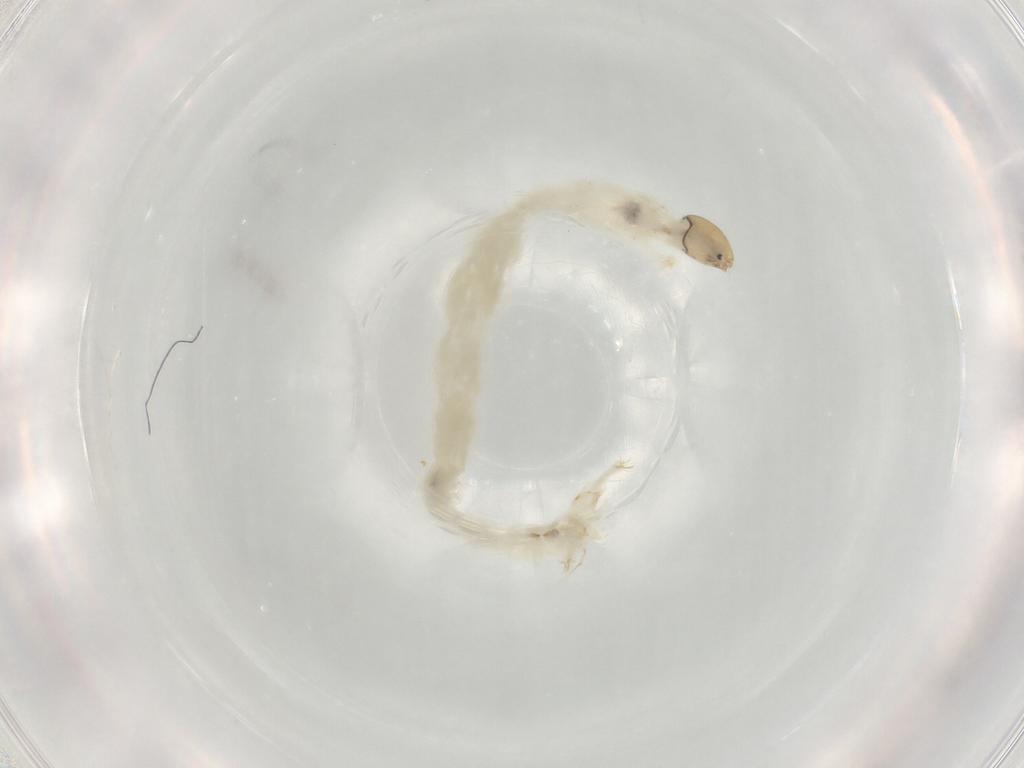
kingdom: Animalia
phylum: Arthropoda
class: Insecta
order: Diptera
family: Chironomidae
